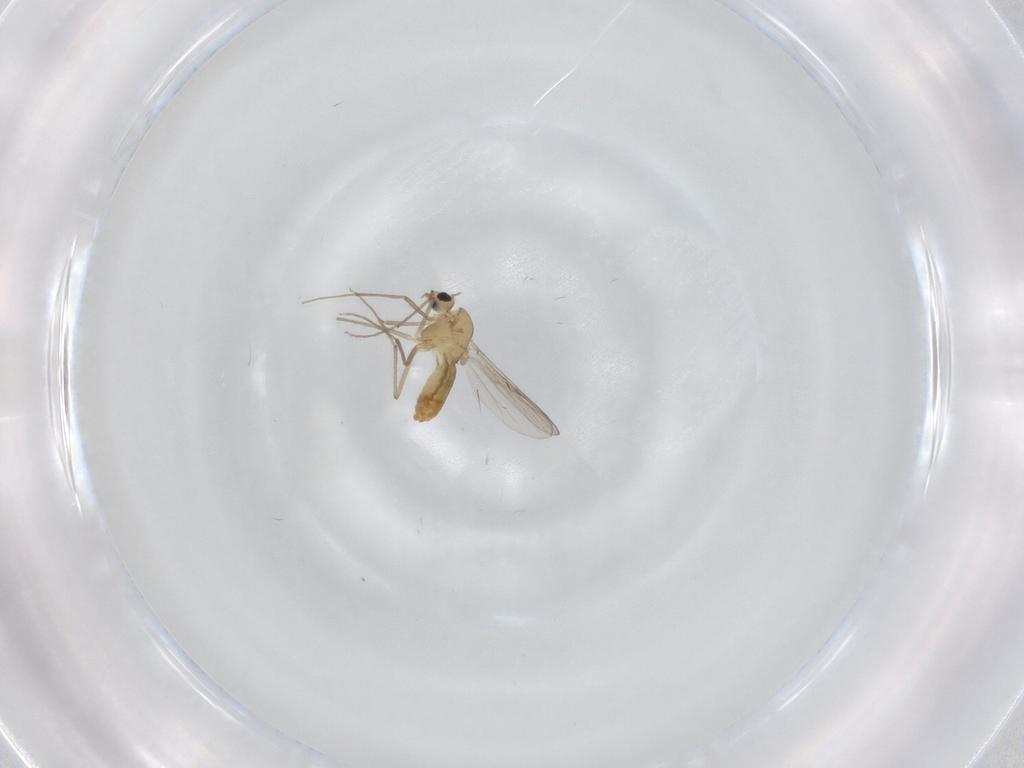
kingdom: Animalia
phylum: Arthropoda
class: Insecta
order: Diptera
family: Chironomidae
